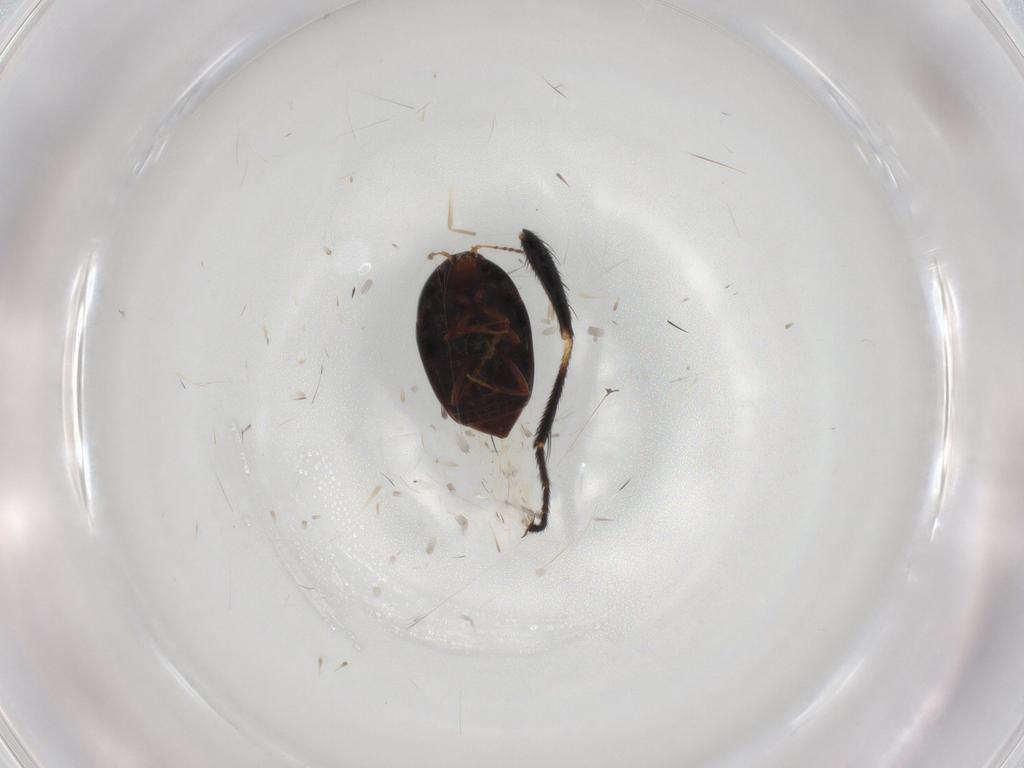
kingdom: Animalia
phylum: Arthropoda
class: Insecta
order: Coleoptera
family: Staphylinidae
